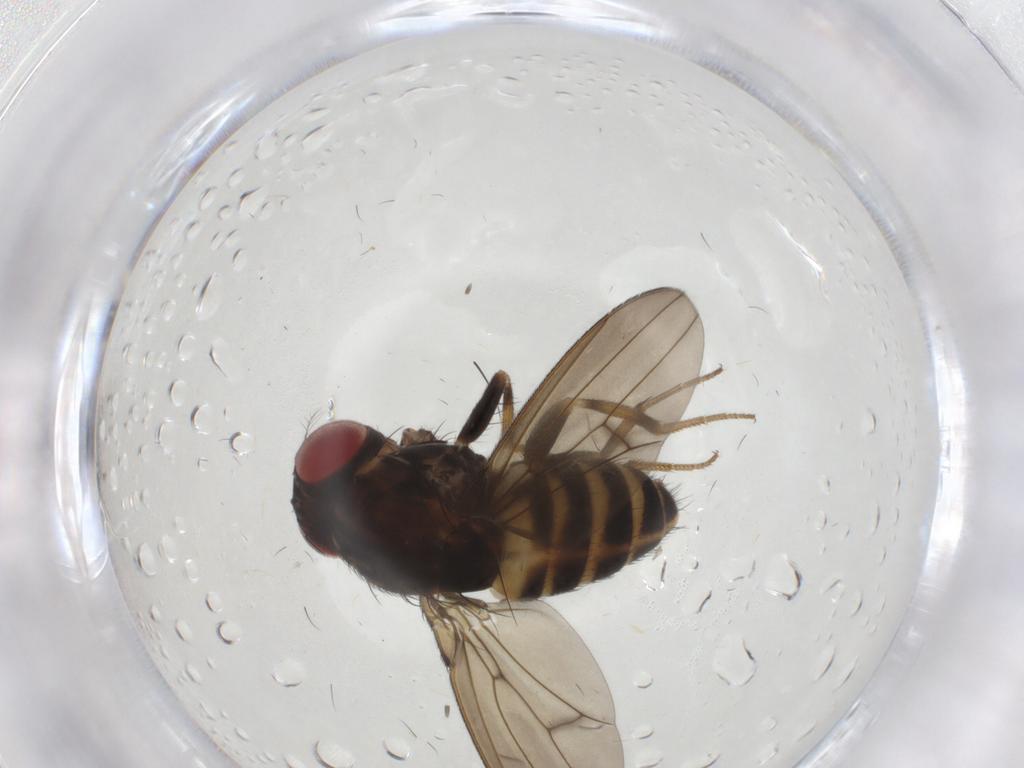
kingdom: Animalia
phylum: Arthropoda
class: Insecta
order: Diptera
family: Drosophilidae
